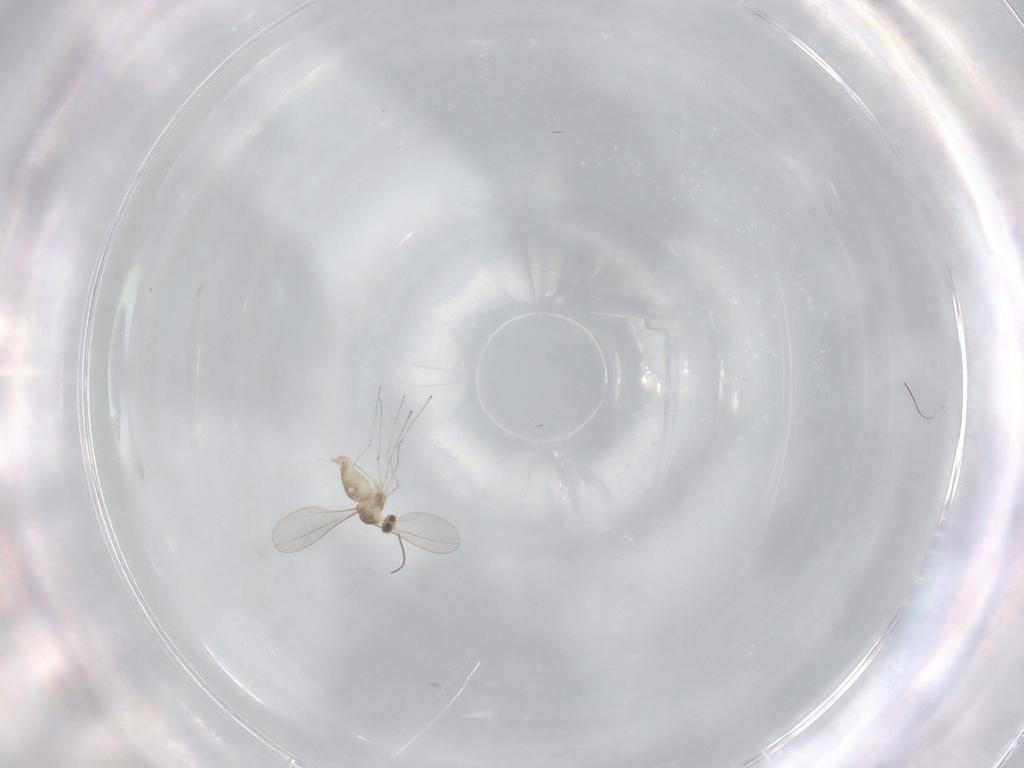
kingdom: Animalia
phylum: Arthropoda
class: Insecta
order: Diptera
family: Cecidomyiidae
